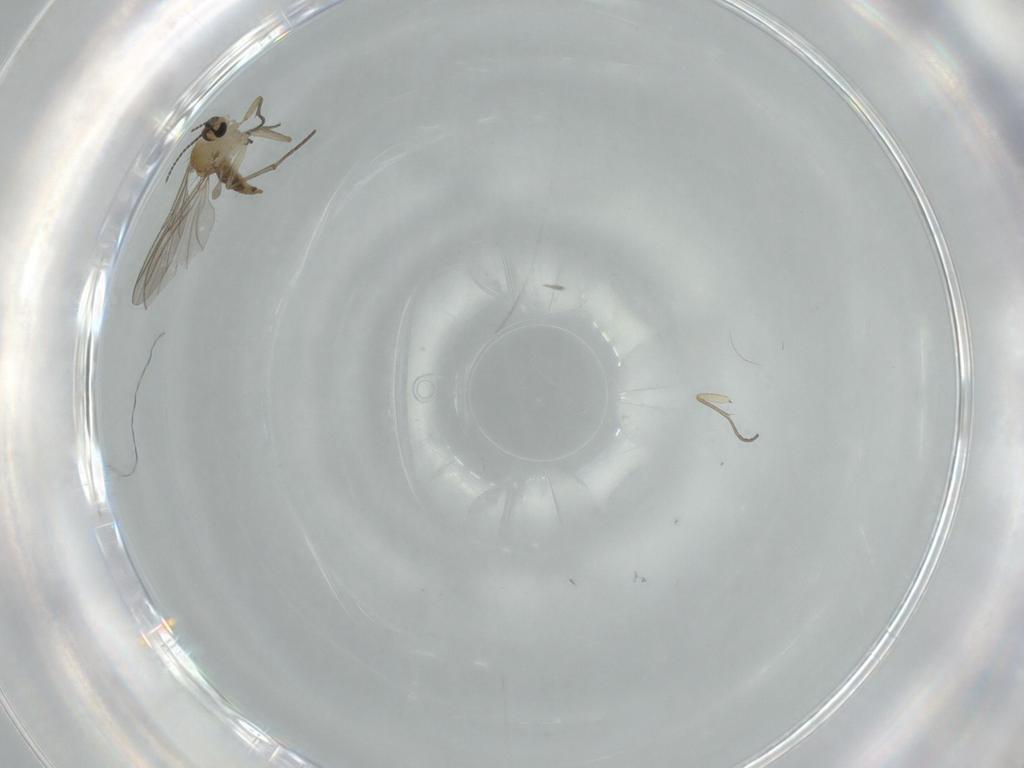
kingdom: Animalia
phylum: Arthropoda
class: Insecta
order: Diptera
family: Sciaridae
